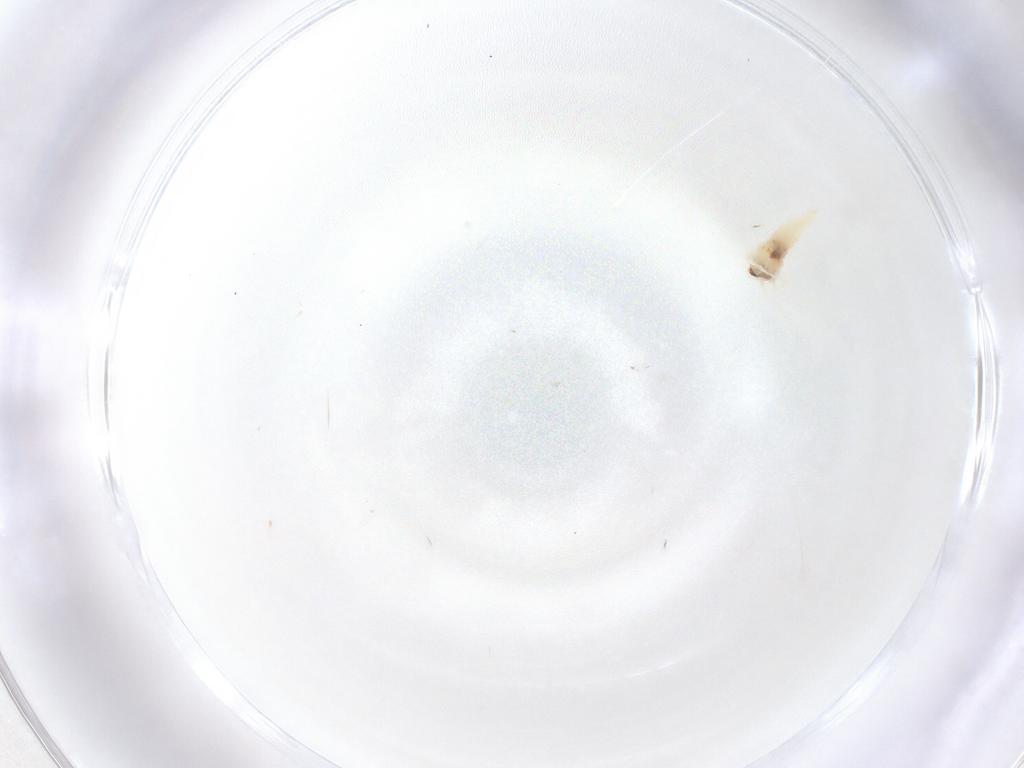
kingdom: Animalia
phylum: Arthropoda
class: Insecta
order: Diptera
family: Cecidomyiidae
